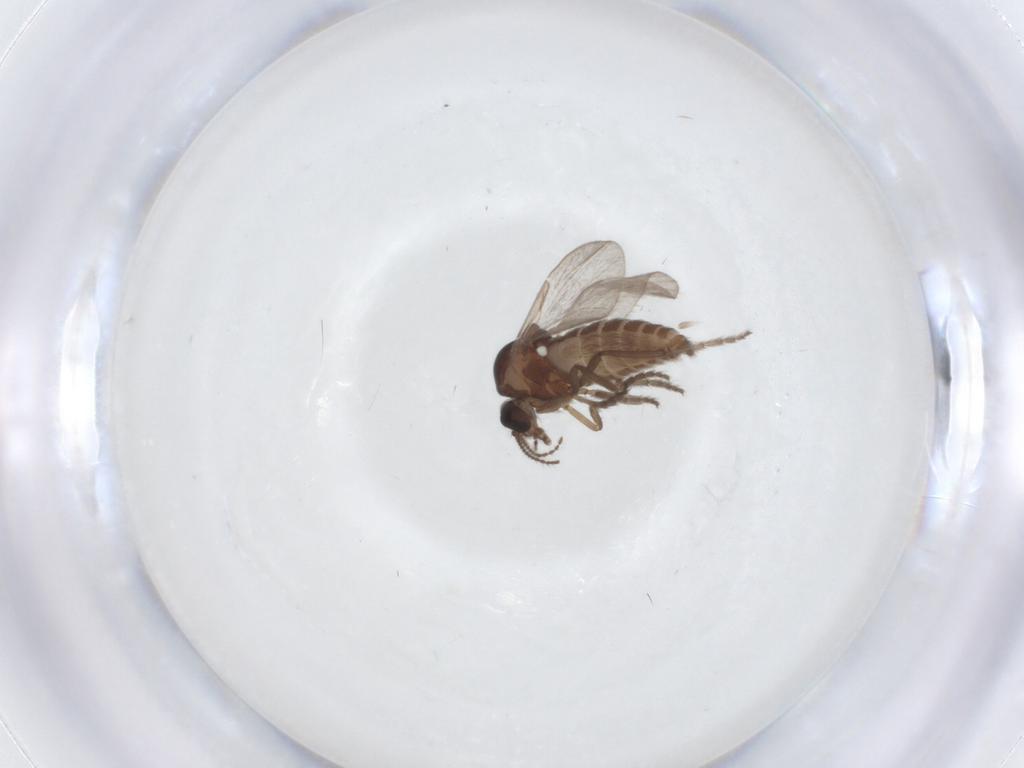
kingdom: Animalia
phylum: Arthropoda
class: Insecta
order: Diptera
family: Ceratopogonidae
